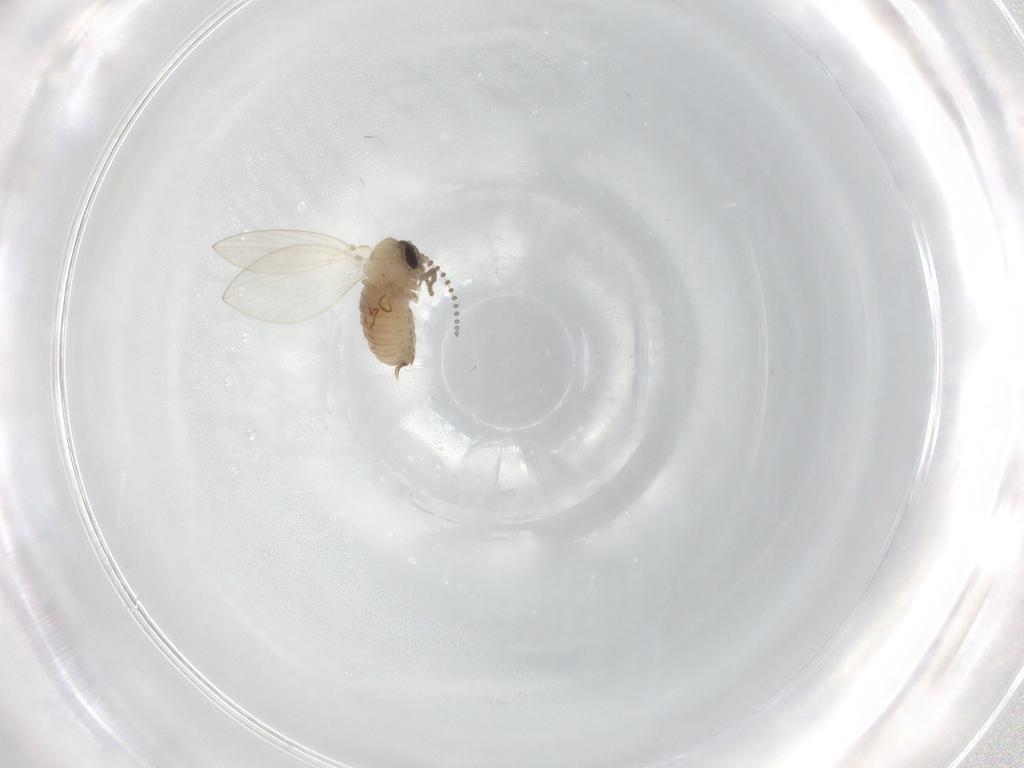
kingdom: Animalia
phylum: Arthropoda
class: Insecta
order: Diptera
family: Psychodidae
